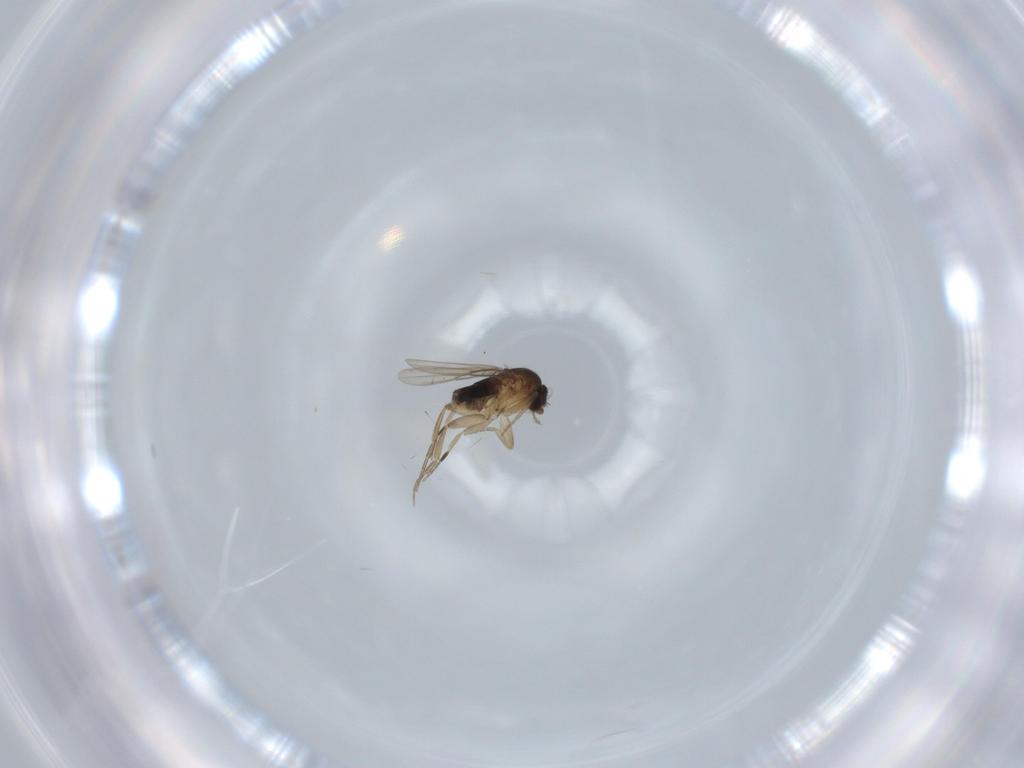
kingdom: Animalia
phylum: Arthropoda
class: Insecta
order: Diptera
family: Phoridae
